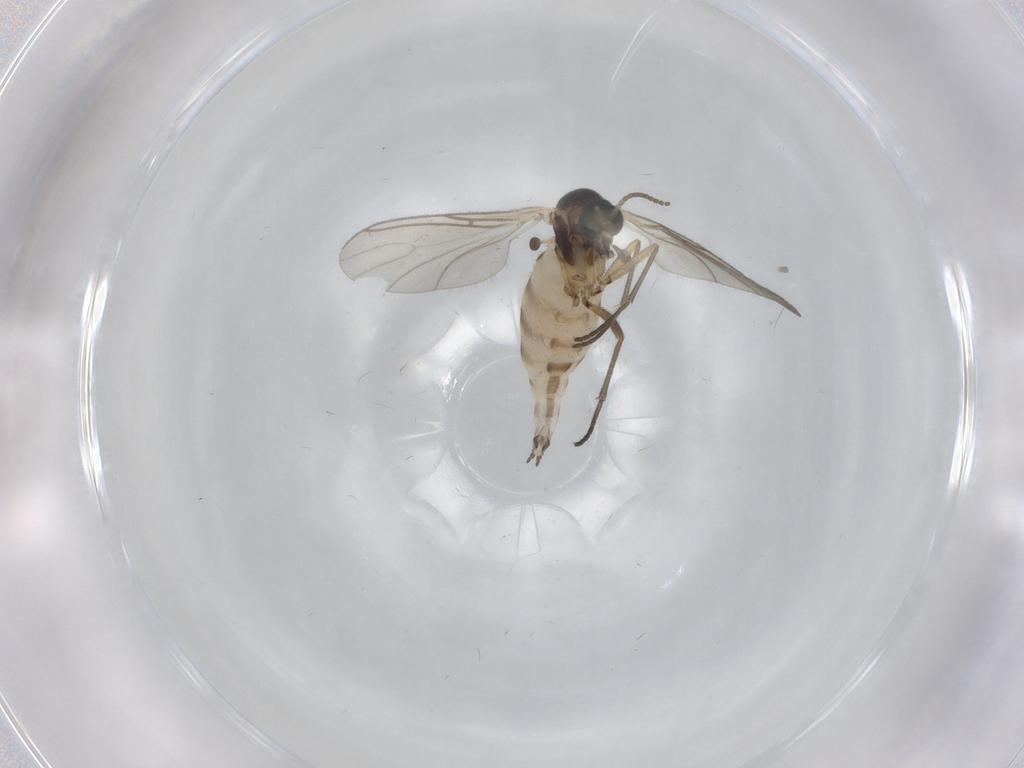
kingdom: Animalia
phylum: Arthropoda
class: Insecta
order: Diptera
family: Sciaridae
